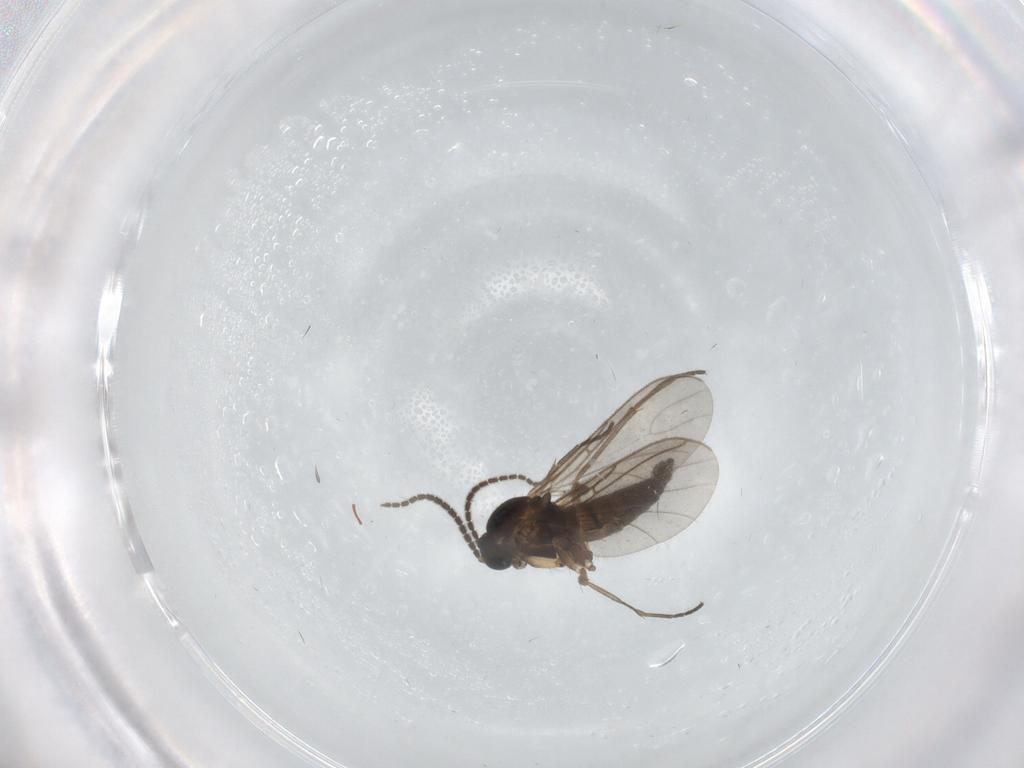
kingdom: Animalia
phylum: Arthropoda
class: Insecta
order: Diptera
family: Sciaridae
